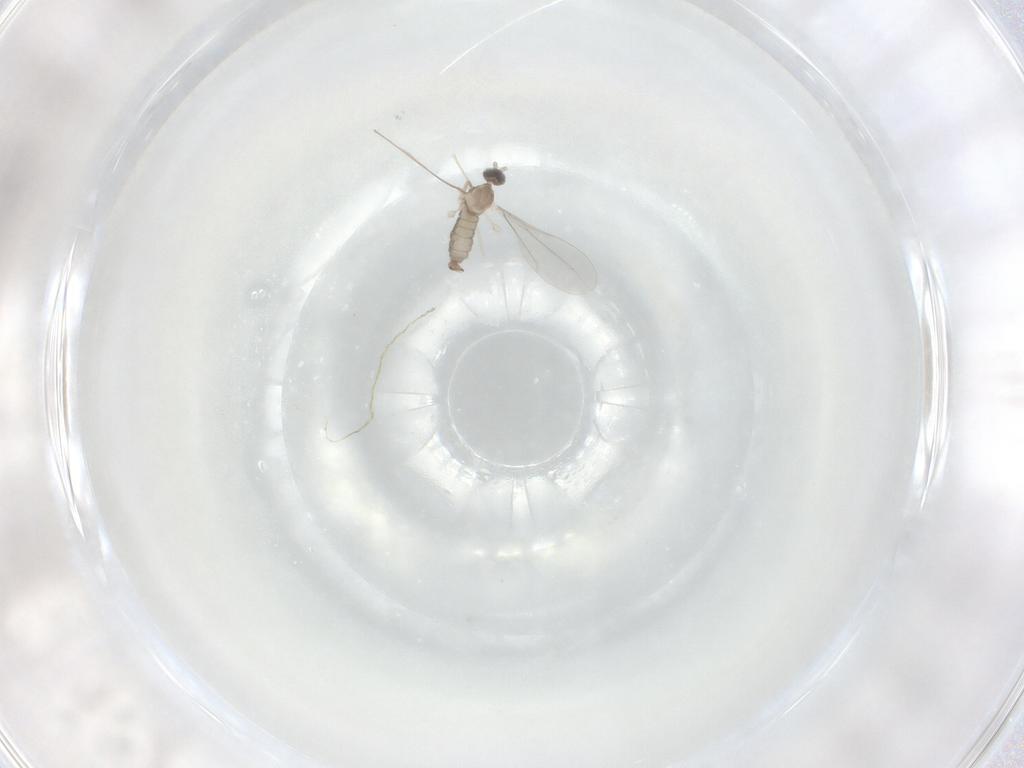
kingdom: Animalia
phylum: Arthropoda
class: Insecta
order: Diptera
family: Cecidomyiidae
